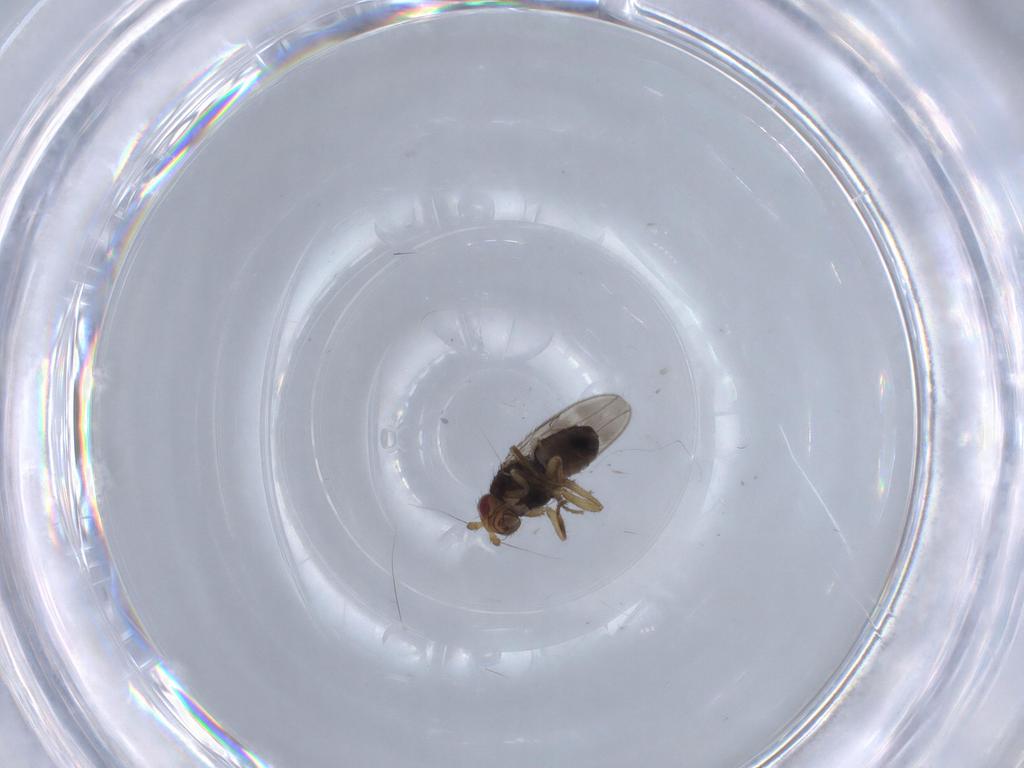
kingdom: Animalia
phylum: Arthropoda
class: Insecta
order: Diptera
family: Sphaeroceridae
